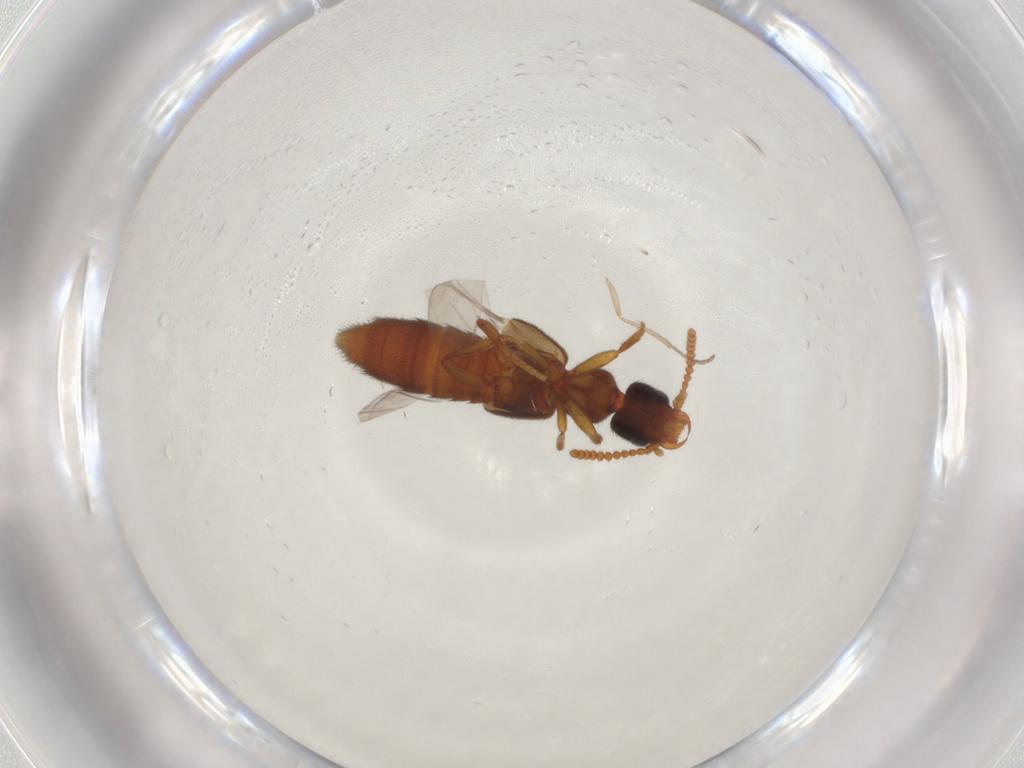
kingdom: Animalia
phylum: Arthropoda
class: Insecta
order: Coleoptera
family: Staphylinidae
